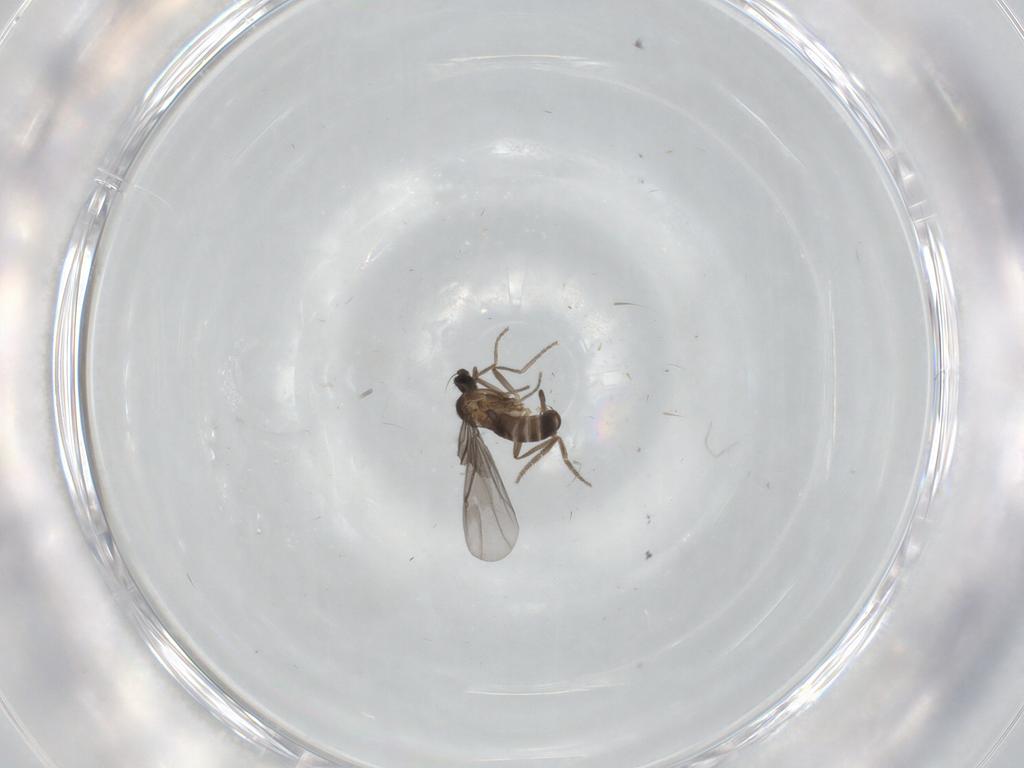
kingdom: Animalia
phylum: Arthropoda
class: Insecta
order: Diptera
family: Phoridae
